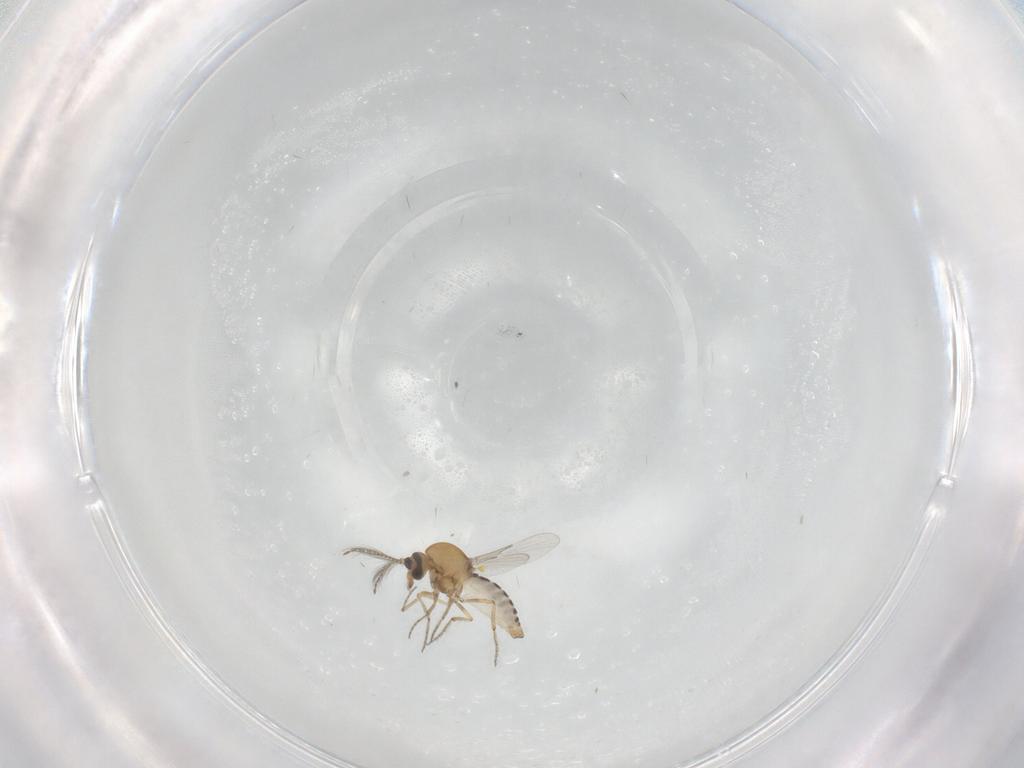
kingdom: Animalia
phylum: Arthropoda
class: Insecta
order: Diptera
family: Ceratopogonidae
